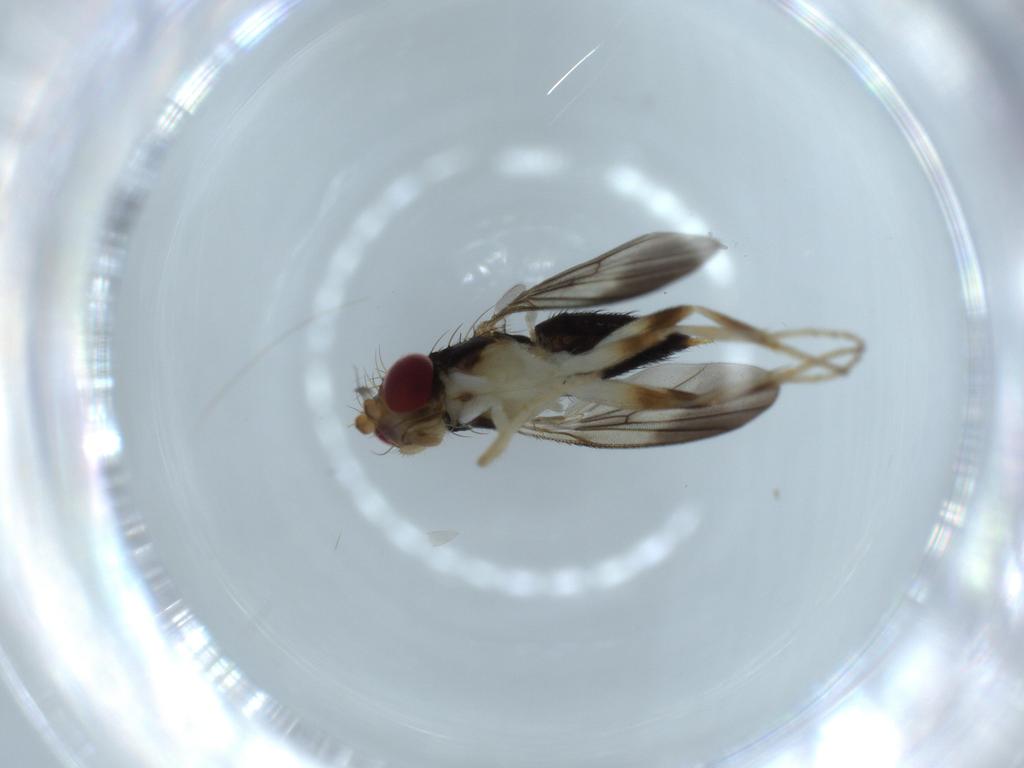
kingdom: Animalia
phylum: Arthropoda
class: Insecta
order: Diptera
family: Clusiidae
